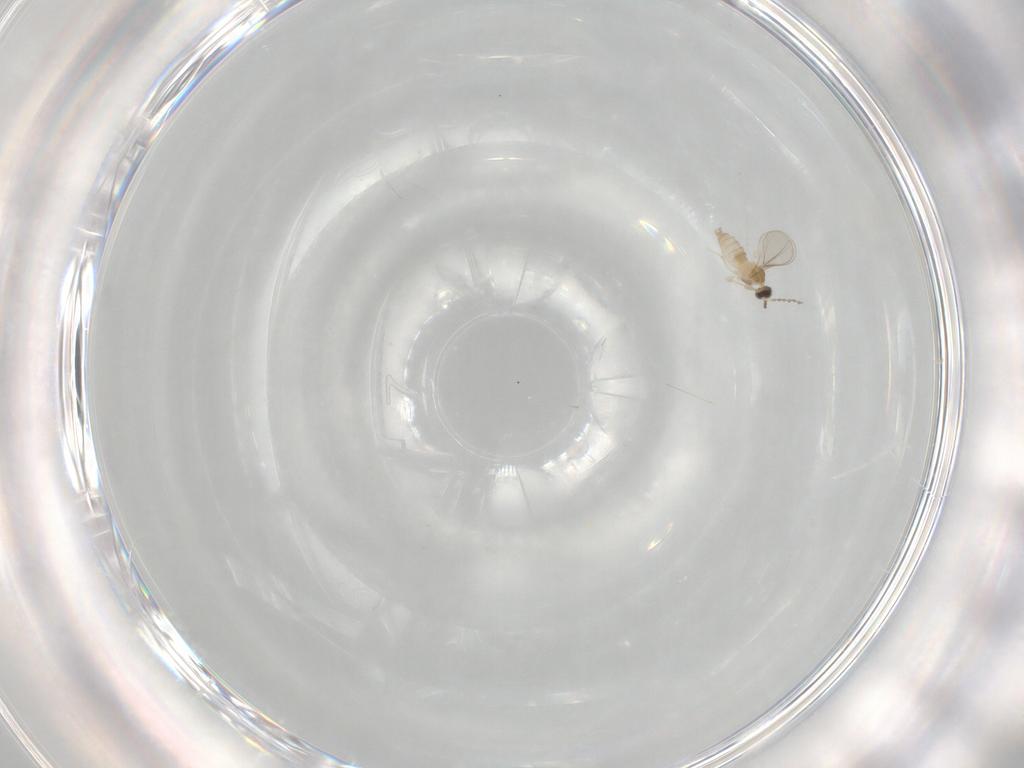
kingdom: Animalia
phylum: Arthropoda
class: Insecta
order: Diptera
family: Cecidomyiidae
